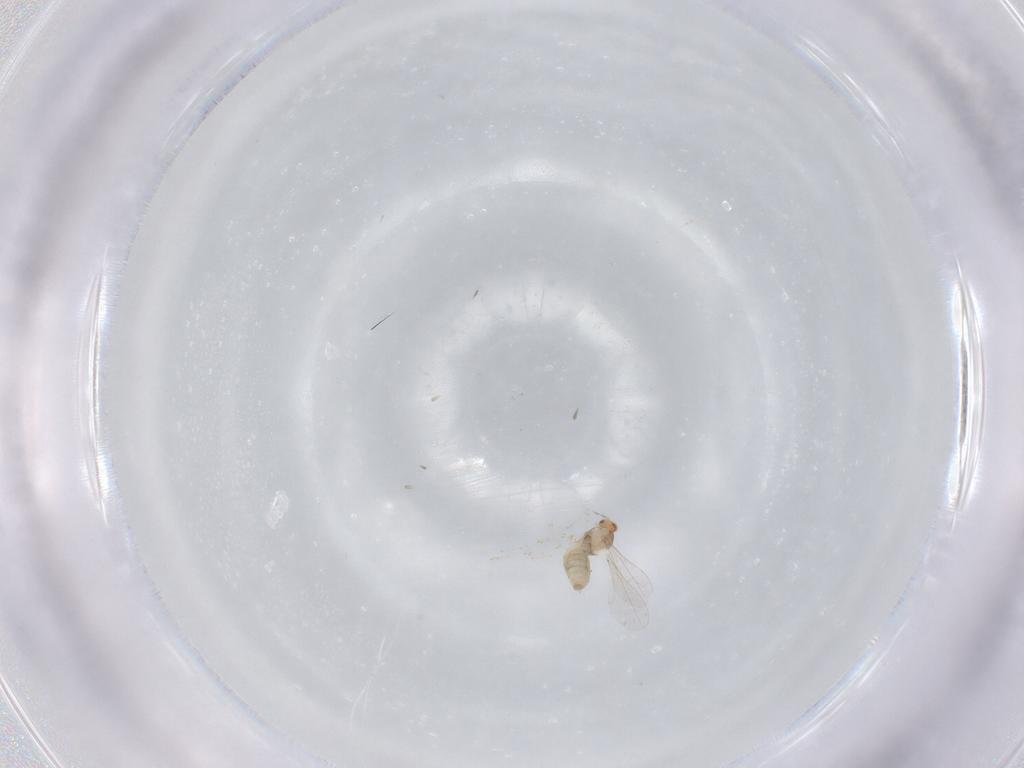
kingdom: Animalia
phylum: Arthropoda
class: Insecta
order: Diptera
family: Cecidomyiidae
